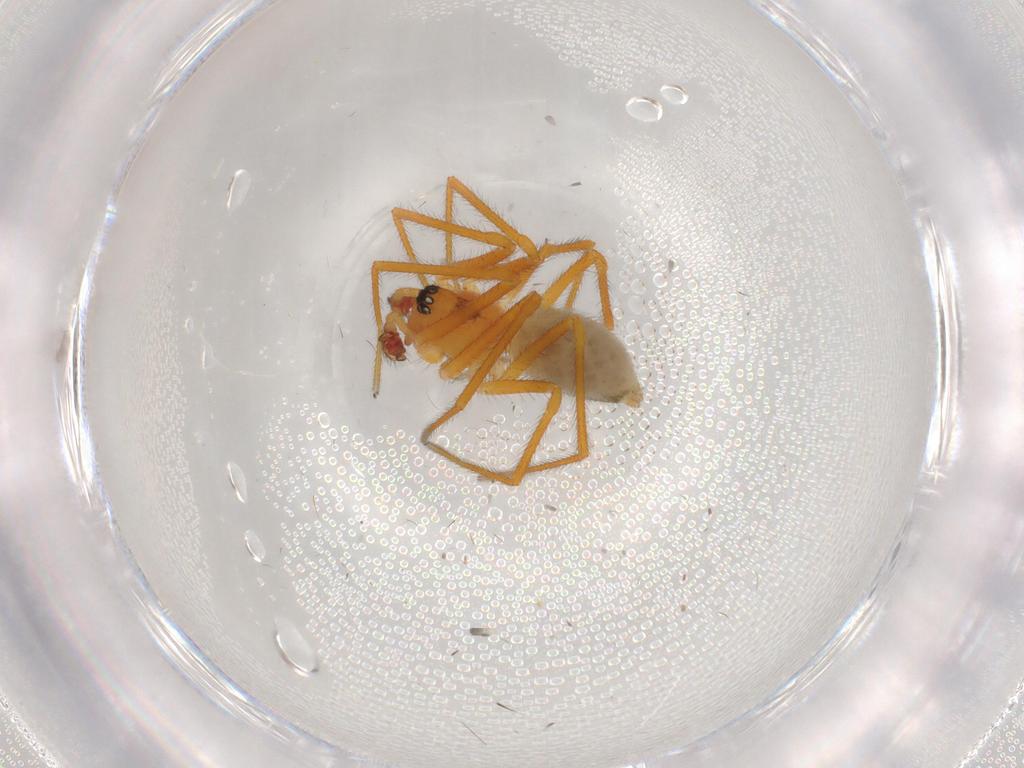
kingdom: Animalia
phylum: Arthropoda
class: Arachnida
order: Araneae
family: Linyphiidae
